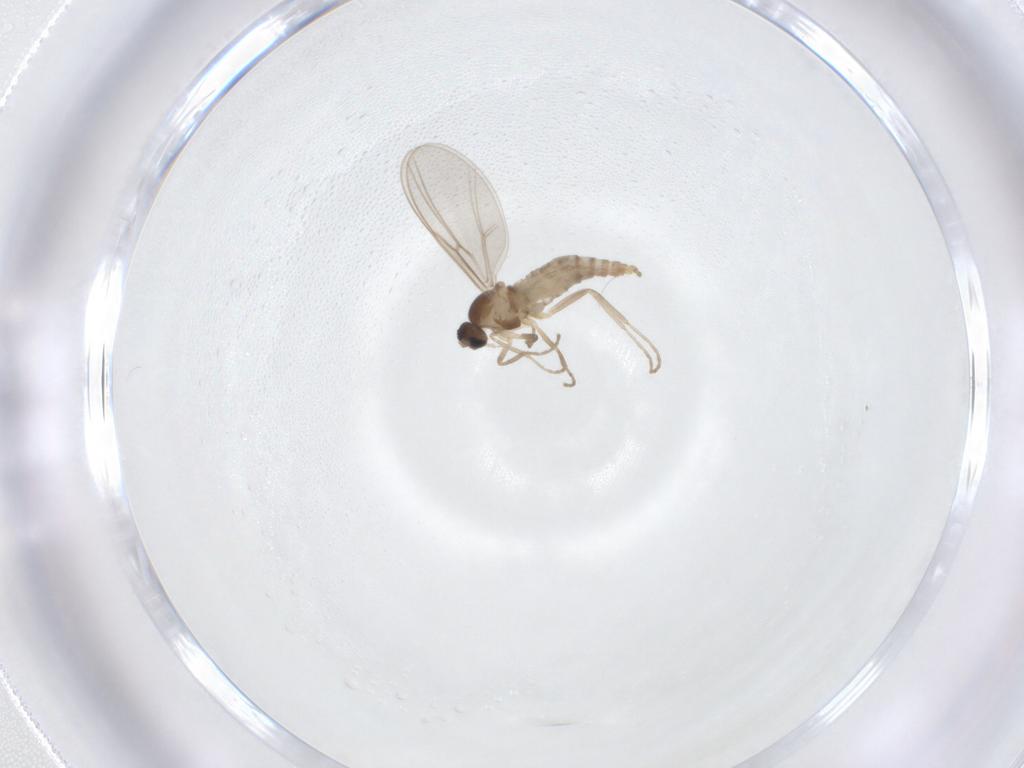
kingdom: Animalia
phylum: Arthropoda
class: Insecta
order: Diptera
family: Cecidomyiidae
